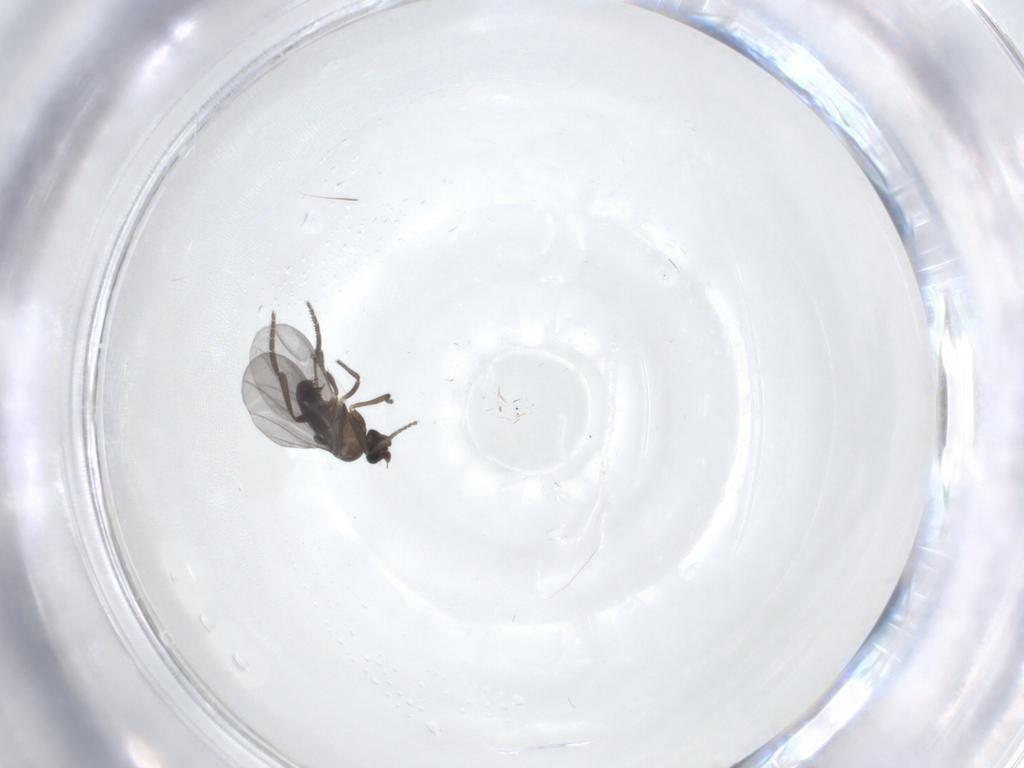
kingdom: Animalia
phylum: Arthropoda
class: Insecta
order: Diptera
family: Phoridae
